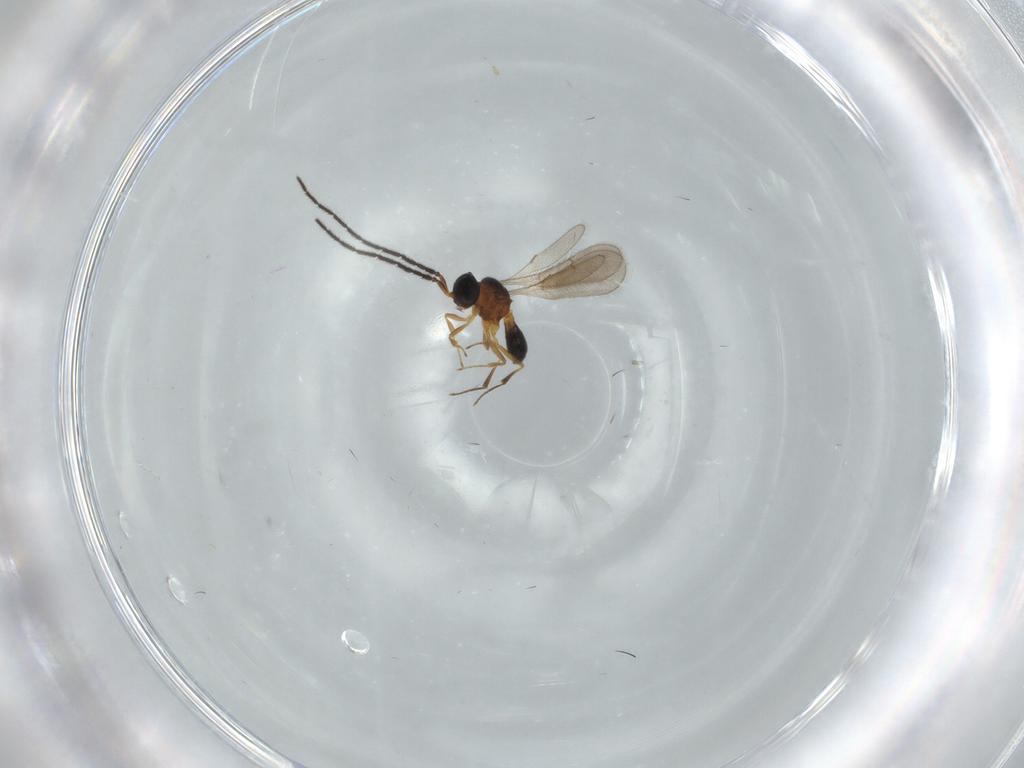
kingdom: Animalia
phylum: Arthropoda
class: Insecta
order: Hymenoptera
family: Scelionidae
